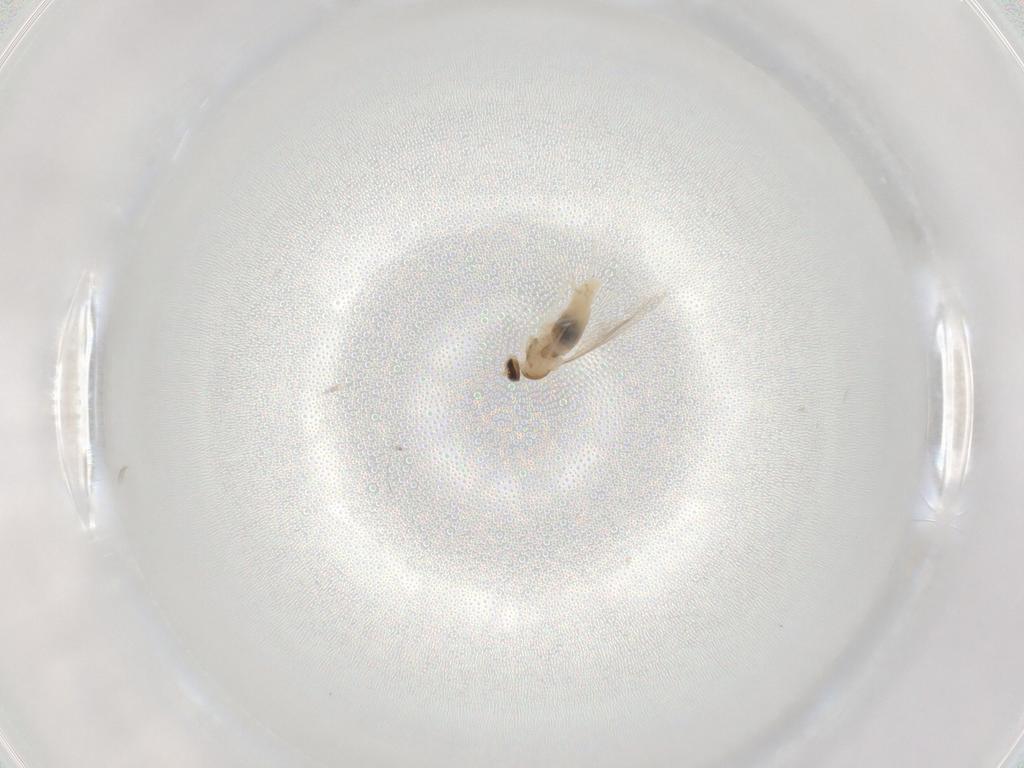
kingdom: Animalia
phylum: Arthropoda
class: Insecta
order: Diptera
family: Cecidomyiidae
